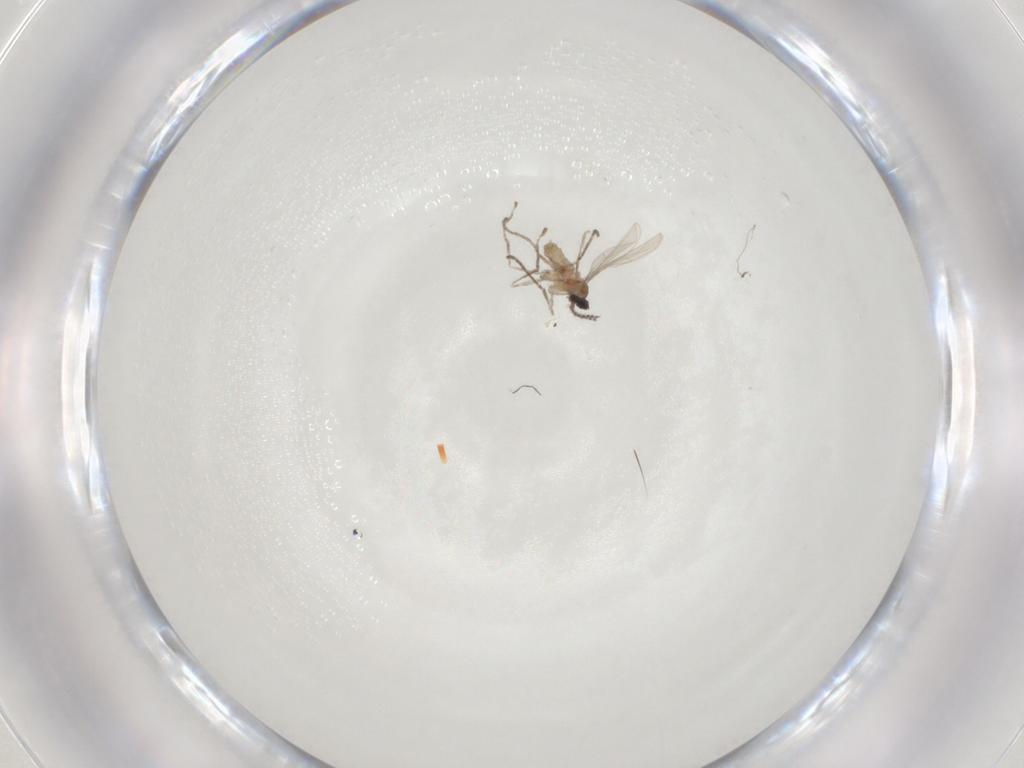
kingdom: Animalia
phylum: Arthropoda
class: Insecta
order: Diptera
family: Cecidomyiidae
